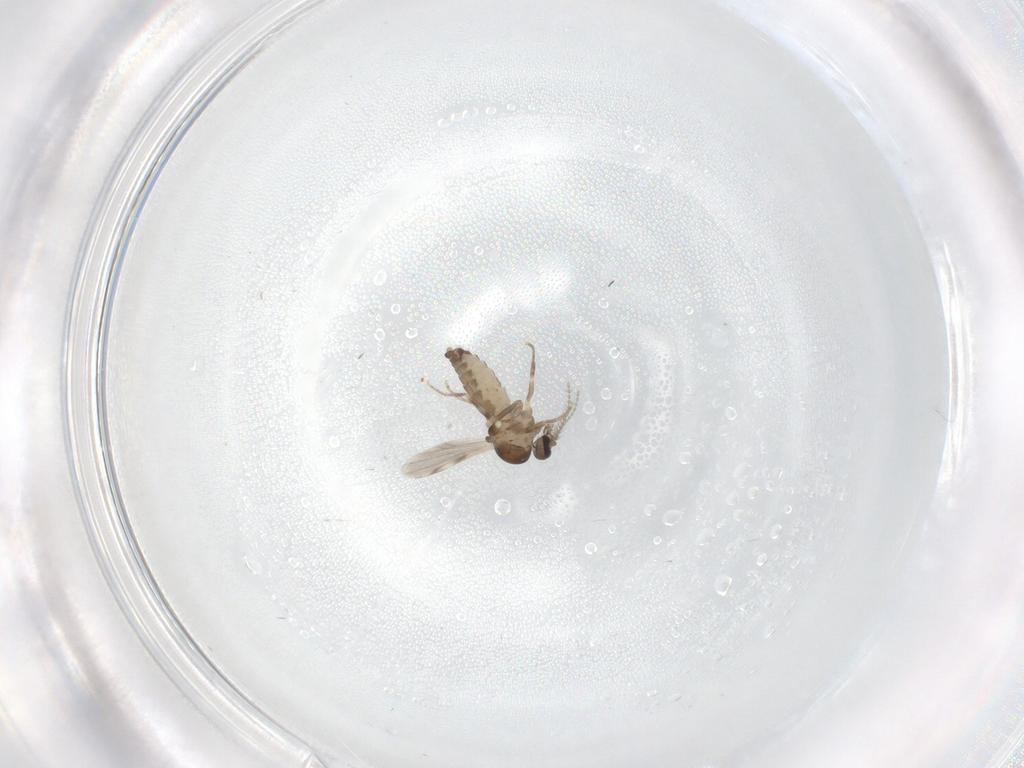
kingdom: Animalia
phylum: Arthropoda
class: Insecta
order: Diptera
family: Ceratopogonidae
